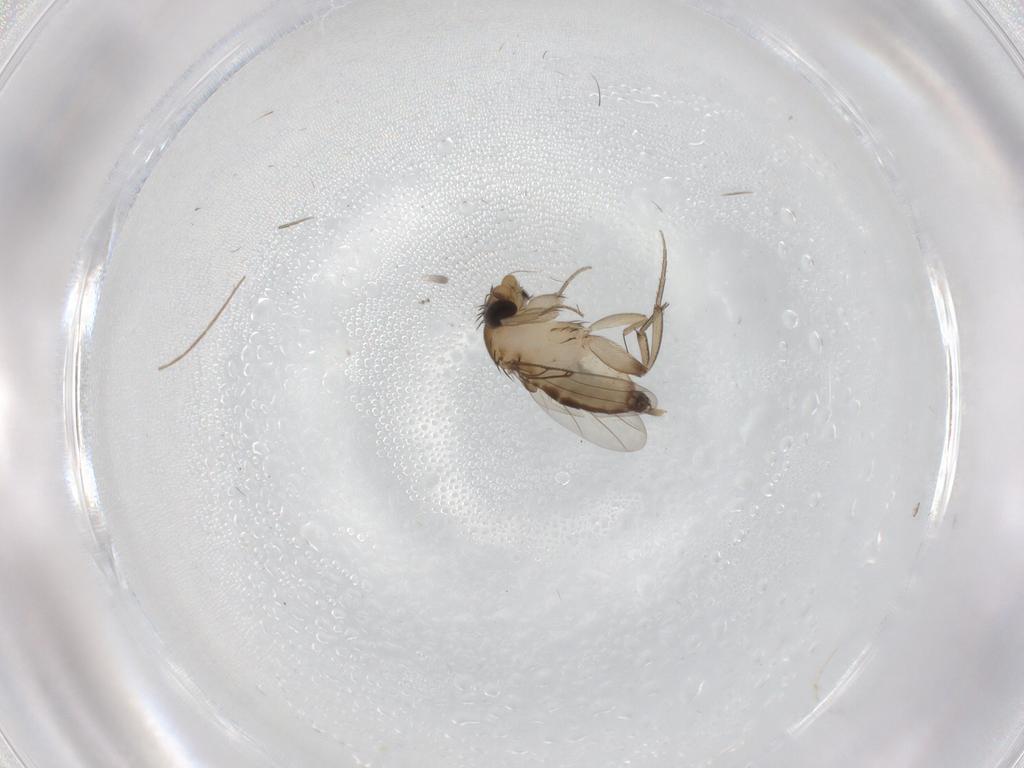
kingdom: Animalia
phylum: Arthropoda
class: Insecta
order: Diptera
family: Phoridae
